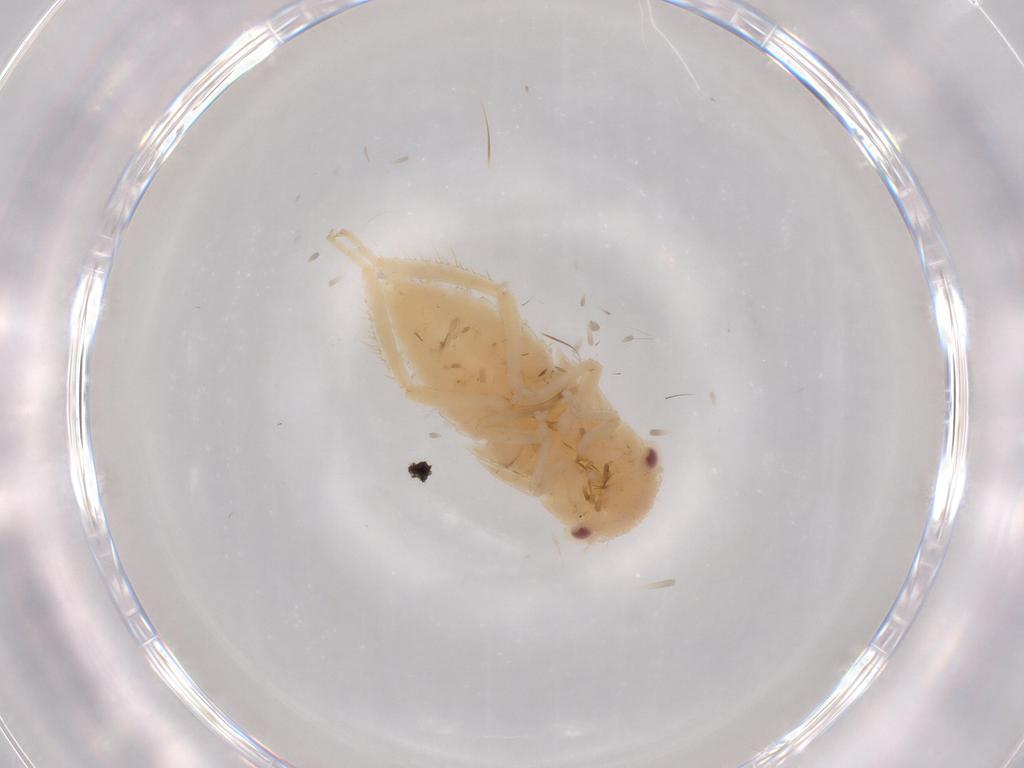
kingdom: Animalia
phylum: Arthropoda
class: Insecta
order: Hemiptera
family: Cicadellidae
